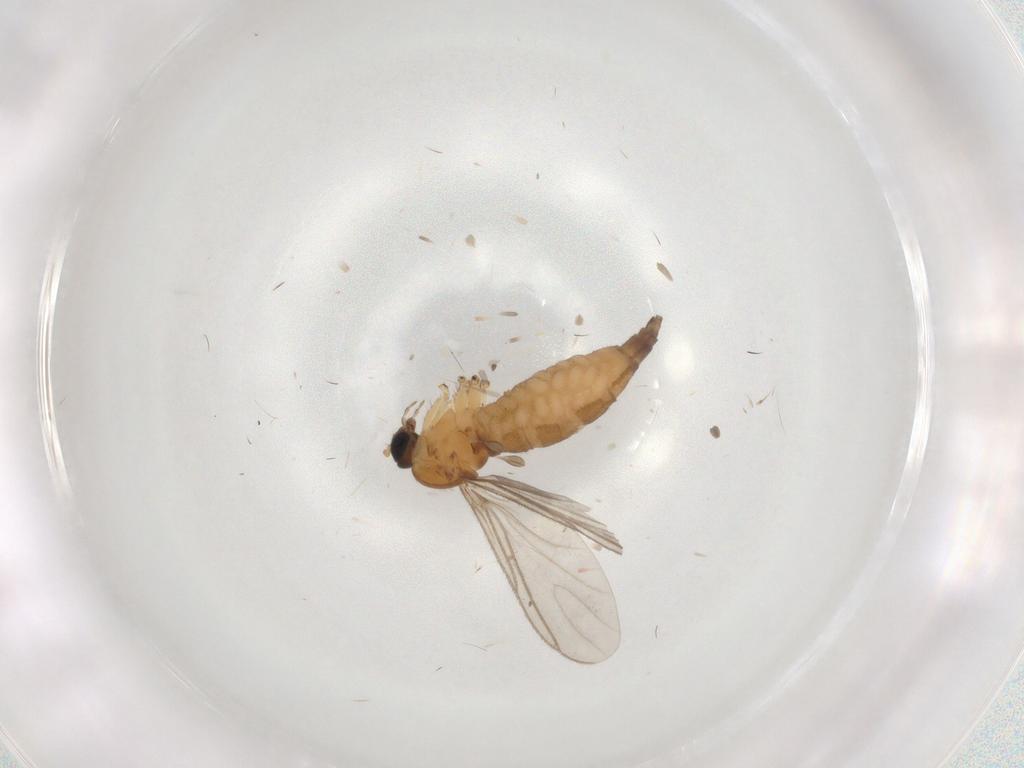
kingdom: Animalia
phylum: Arthropoda
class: Insecta
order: Diptera
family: Sciaridae
